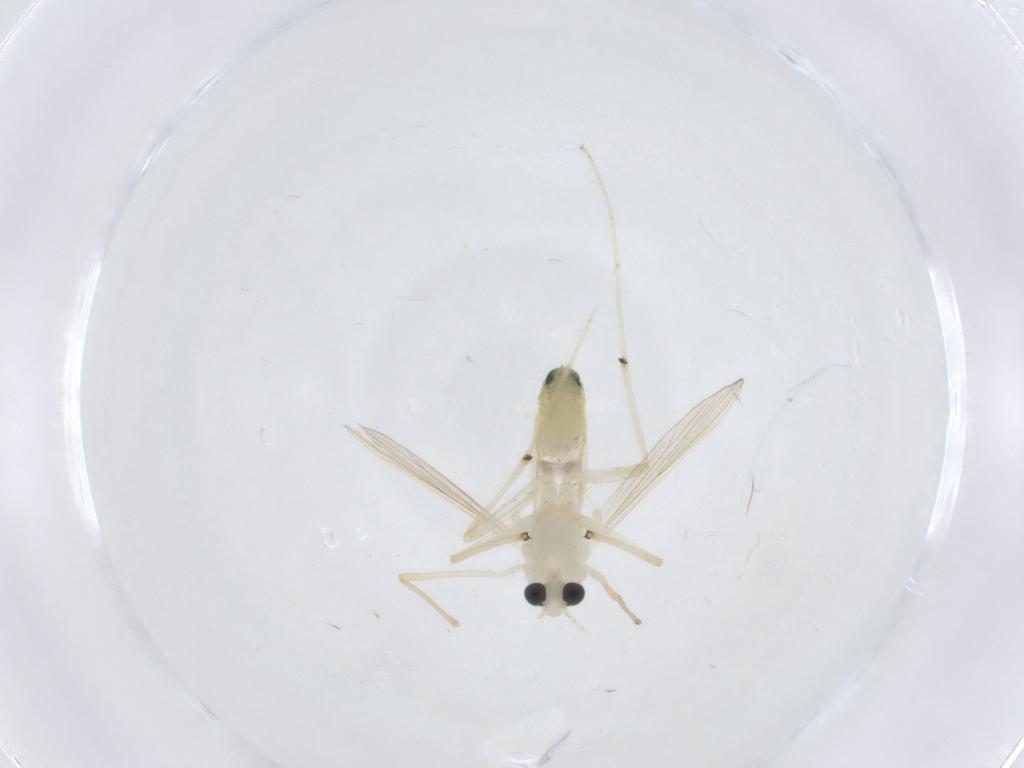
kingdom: Animalia
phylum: Arthropoda
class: Insecta
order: Diptera
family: Chironomidae
